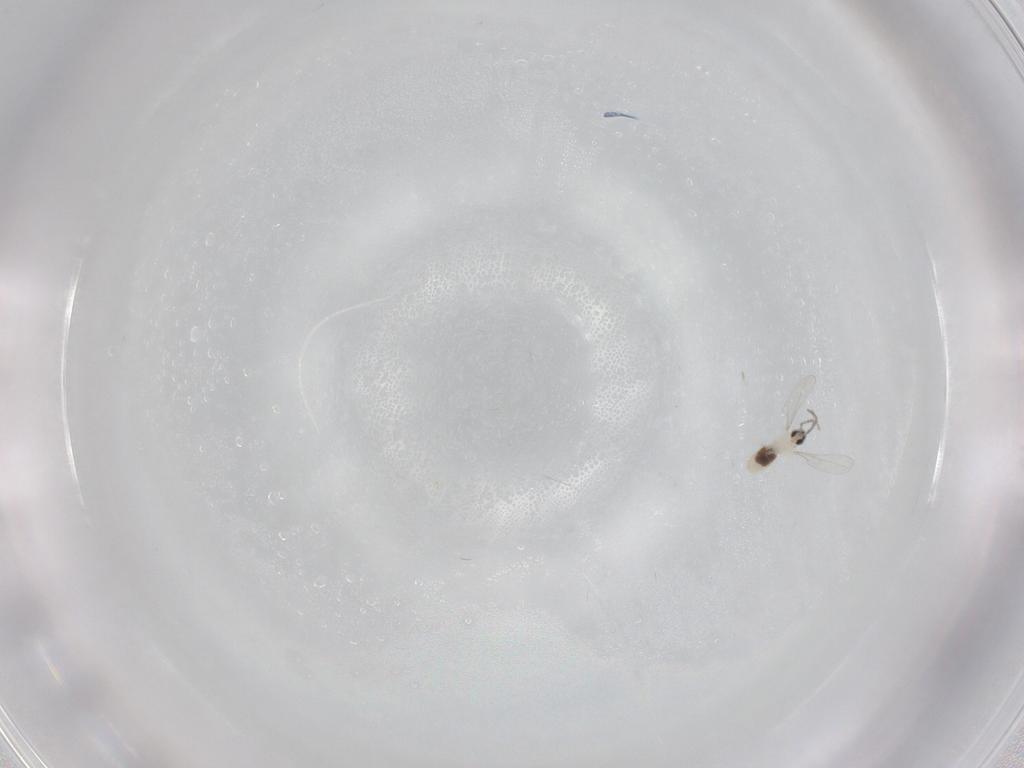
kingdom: Animalia
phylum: Arthropoda
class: Insecta
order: Diptera
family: Cecidomyiidae
